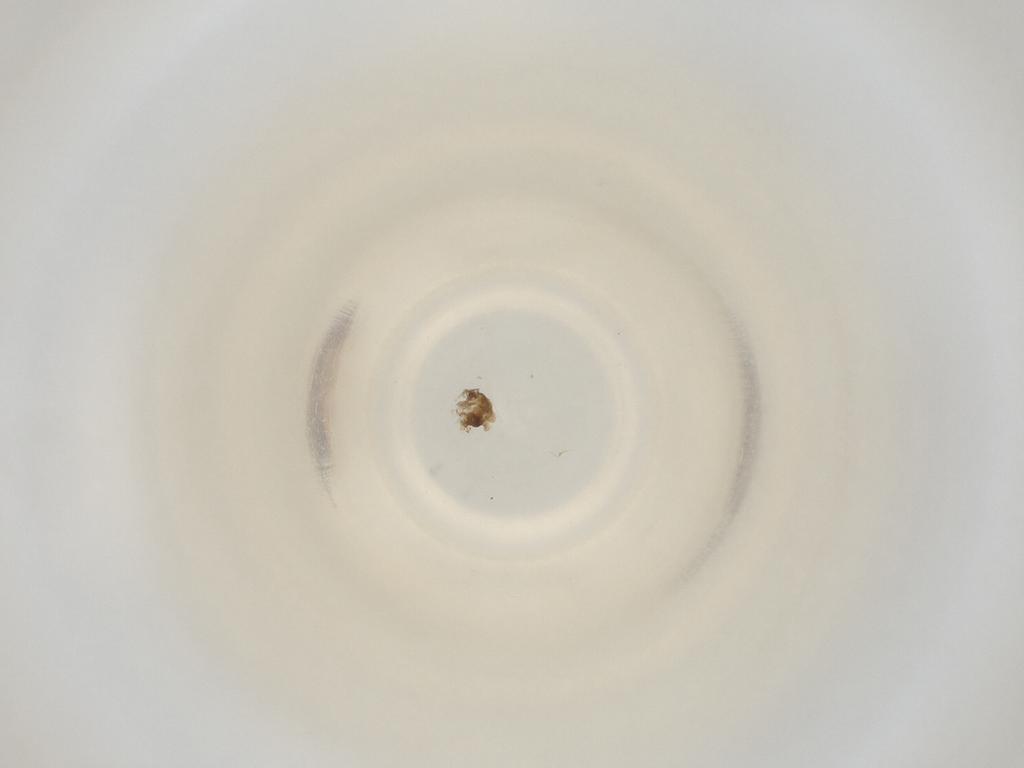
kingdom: Animalia
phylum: Arthropoda
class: Insecta
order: Diptera
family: Cecidomyiidae
